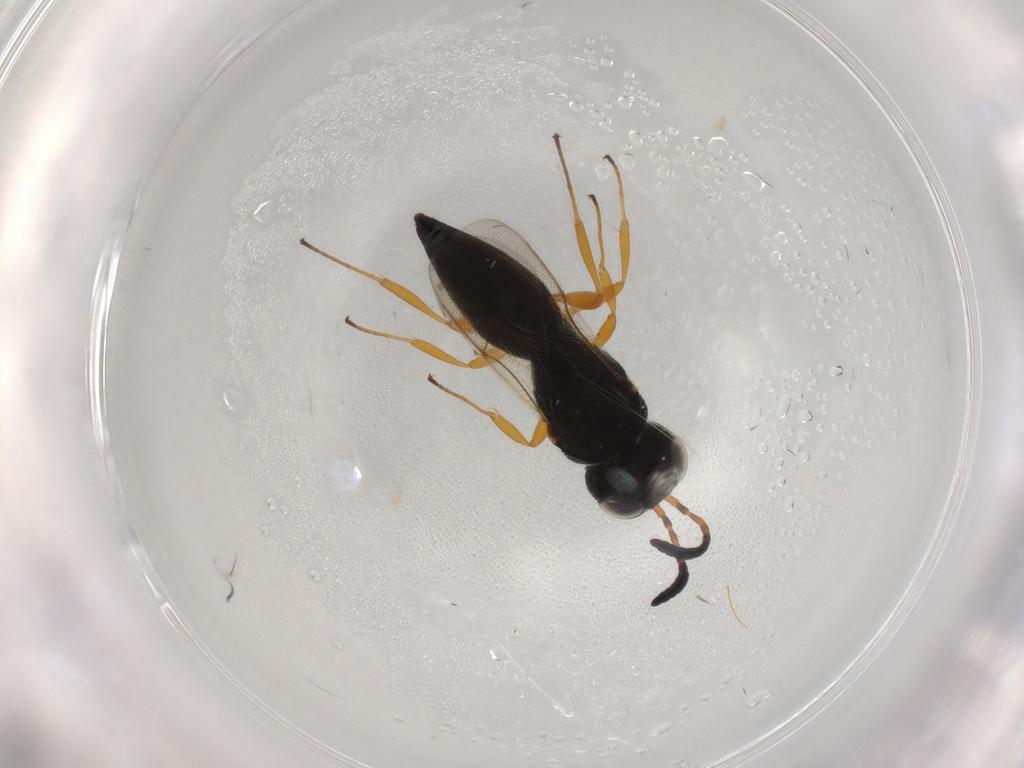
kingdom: Animalia
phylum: Arthropoda
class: Insecta
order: Hymenoptera
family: Scelionidae
